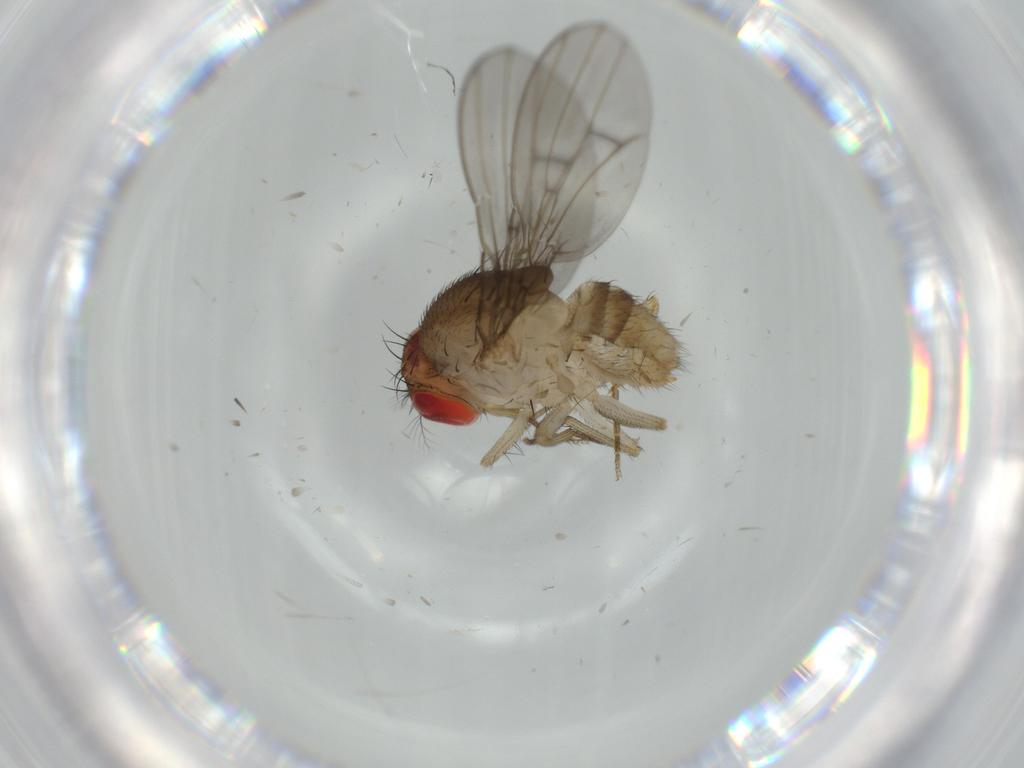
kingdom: Animalia
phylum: Arthropoda
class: Insecta
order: Diptera
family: Drosophilidae
